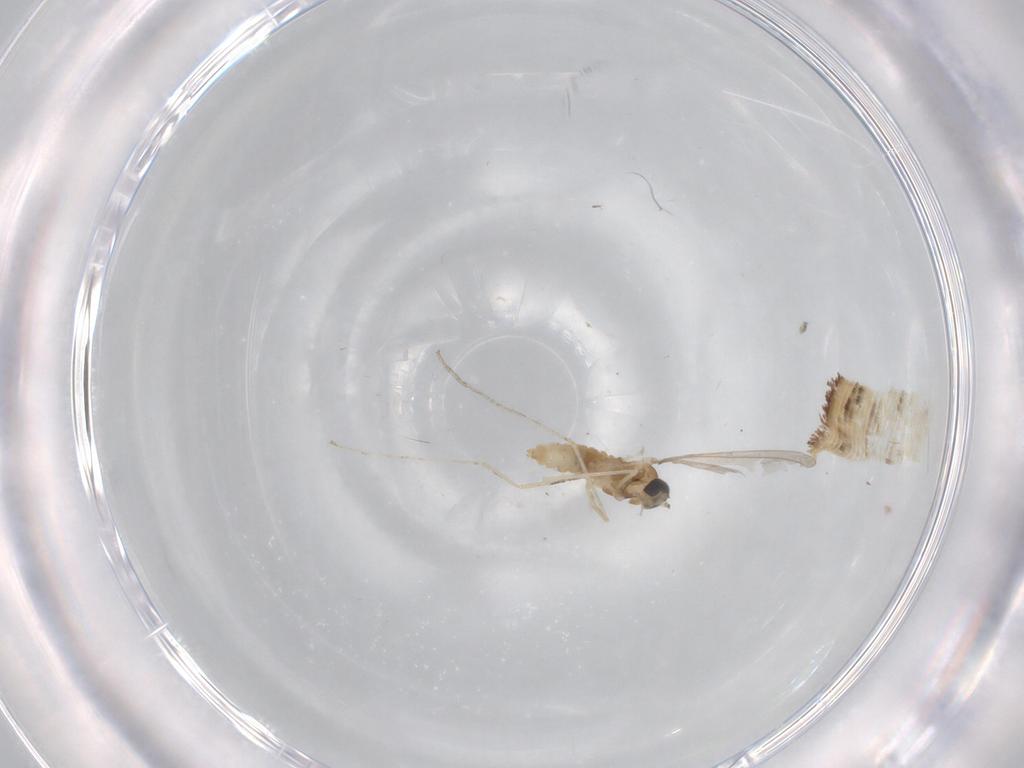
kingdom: Animalia
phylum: Arthropoda
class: Insecta
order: Diptera
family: Cecidomyiidae
